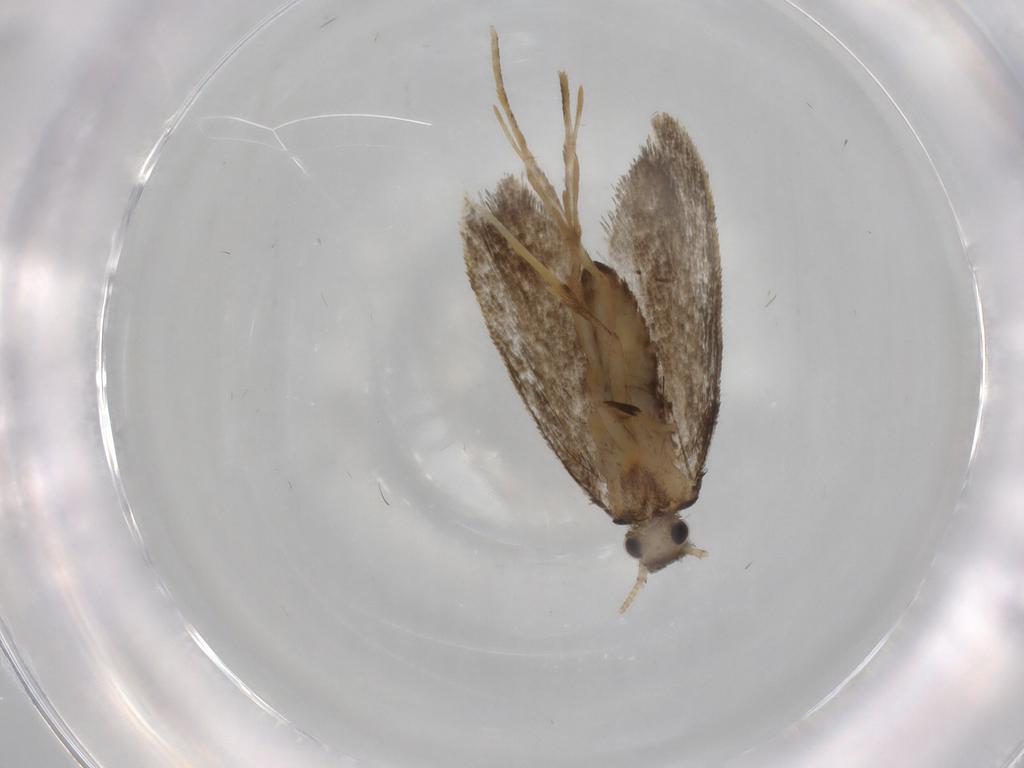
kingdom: Animalia
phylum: Arthropoda
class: Insecta
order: Lepidoptera
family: Psychidae
